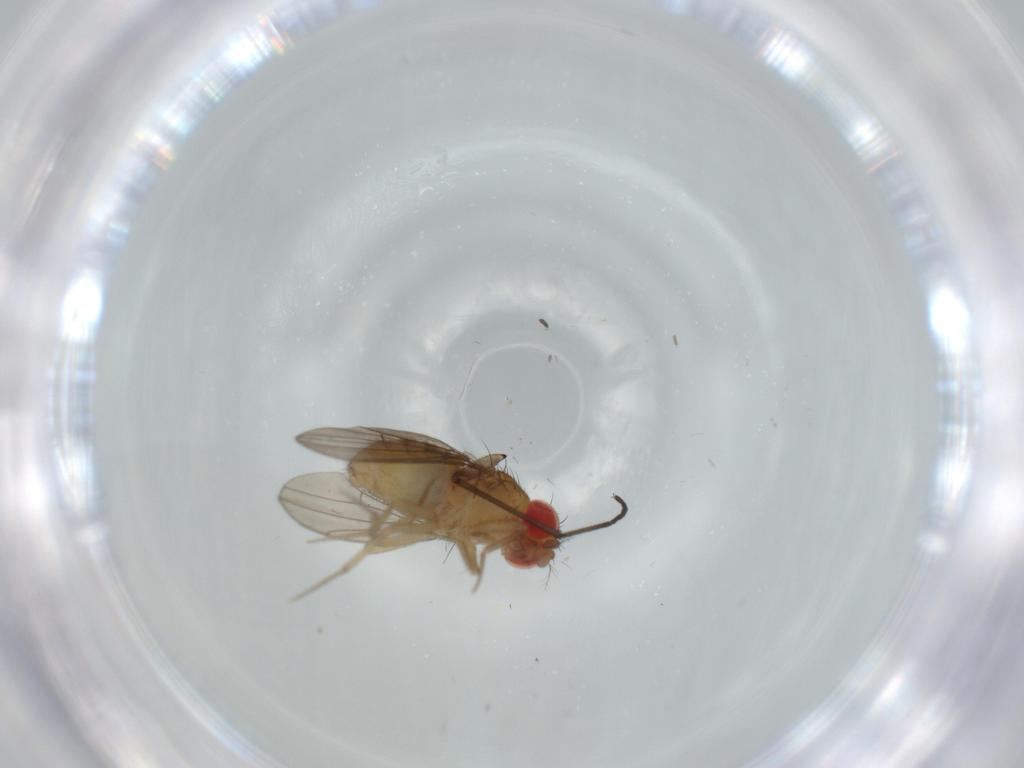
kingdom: Animalia
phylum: Arthropoda
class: Insecta
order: Diptera
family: Drosophilidae
